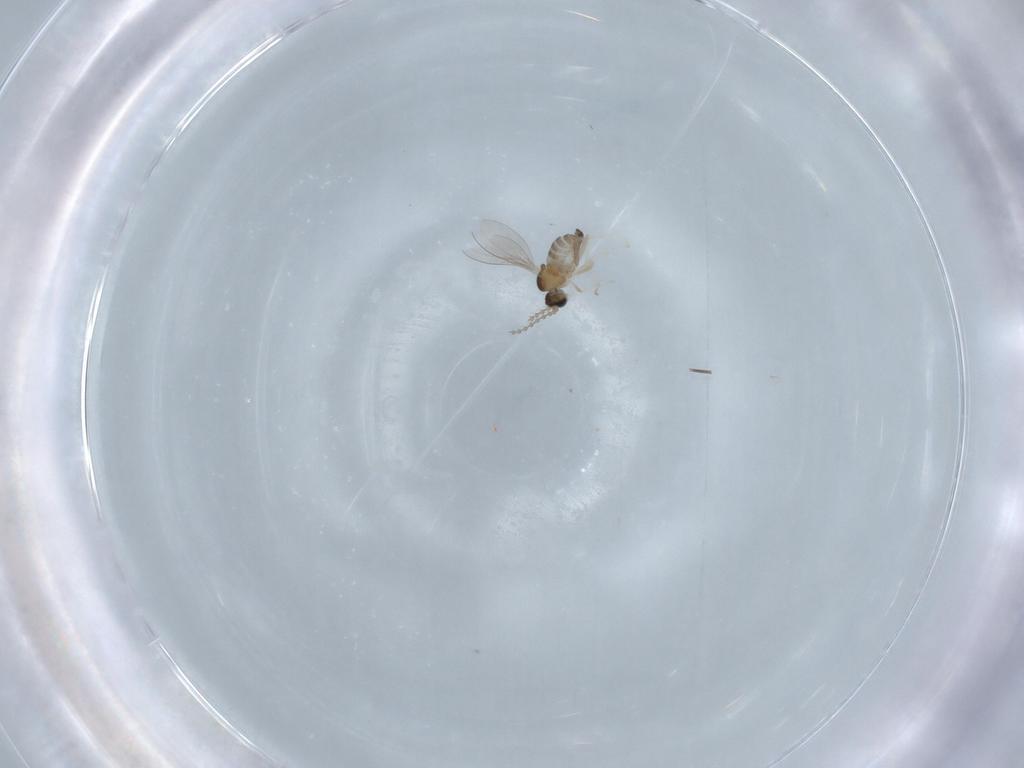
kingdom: Animalia
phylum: Arthropoda
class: Insecta
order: Diptera
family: Cecidomyiidae
